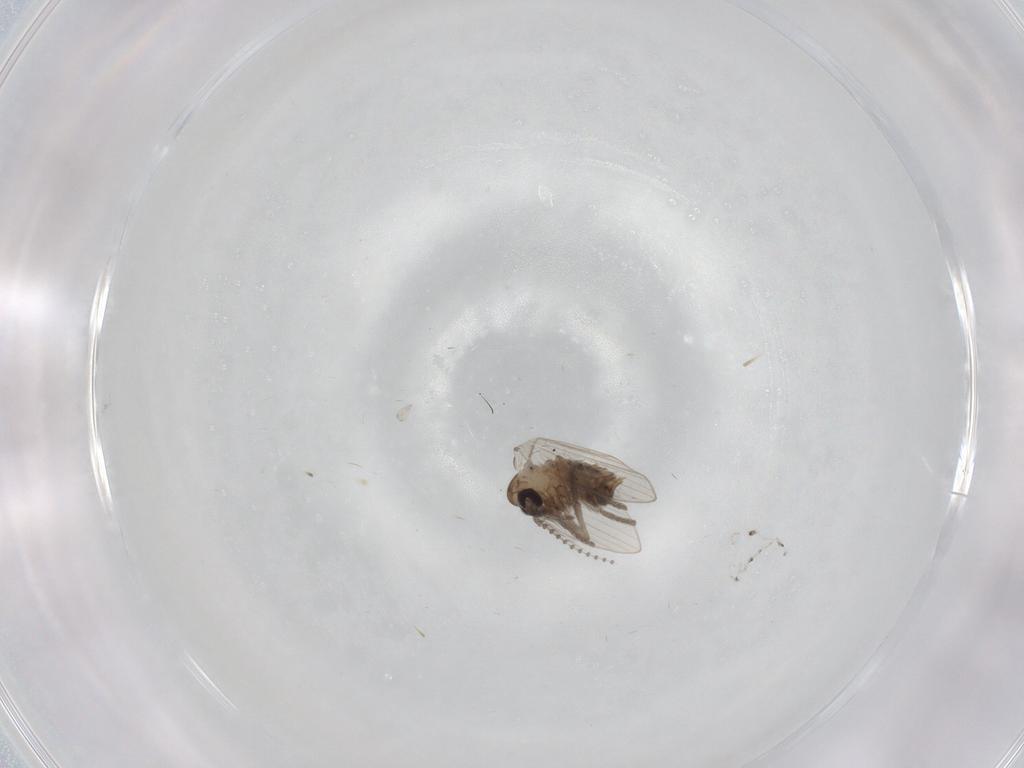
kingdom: Animalia
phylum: Arthropoda
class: Insecta
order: Diptera
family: Psychodidae
